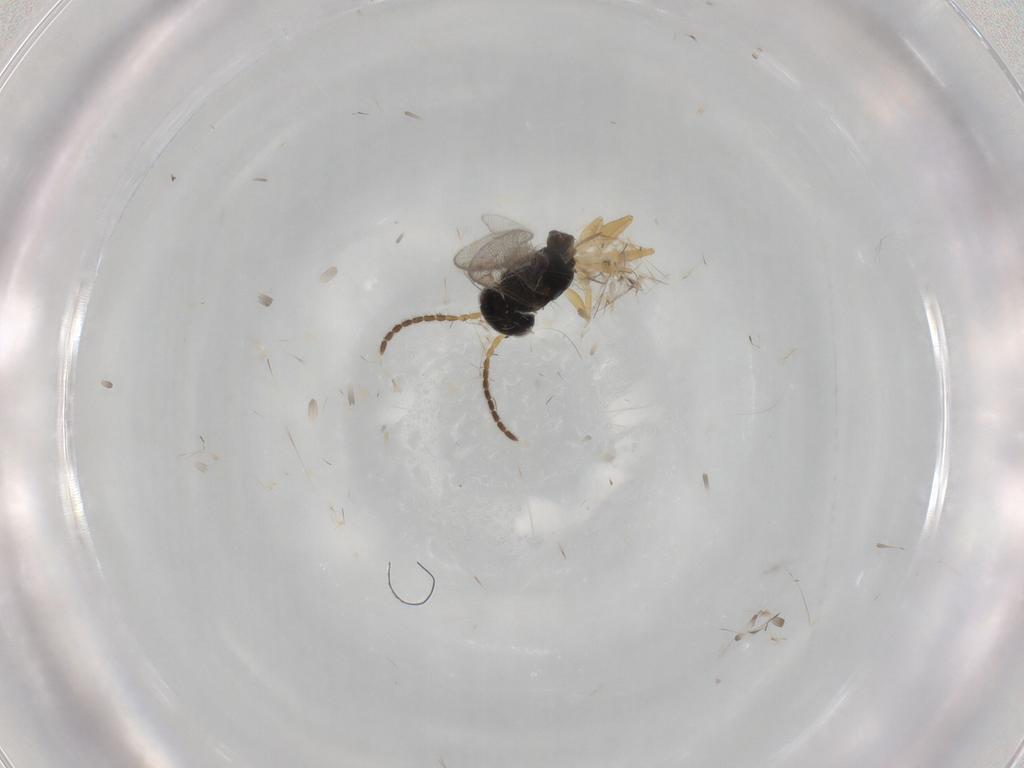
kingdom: Animalia
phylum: Arthropoda
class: Insecta
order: Hymenoptera
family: Dryinidae
